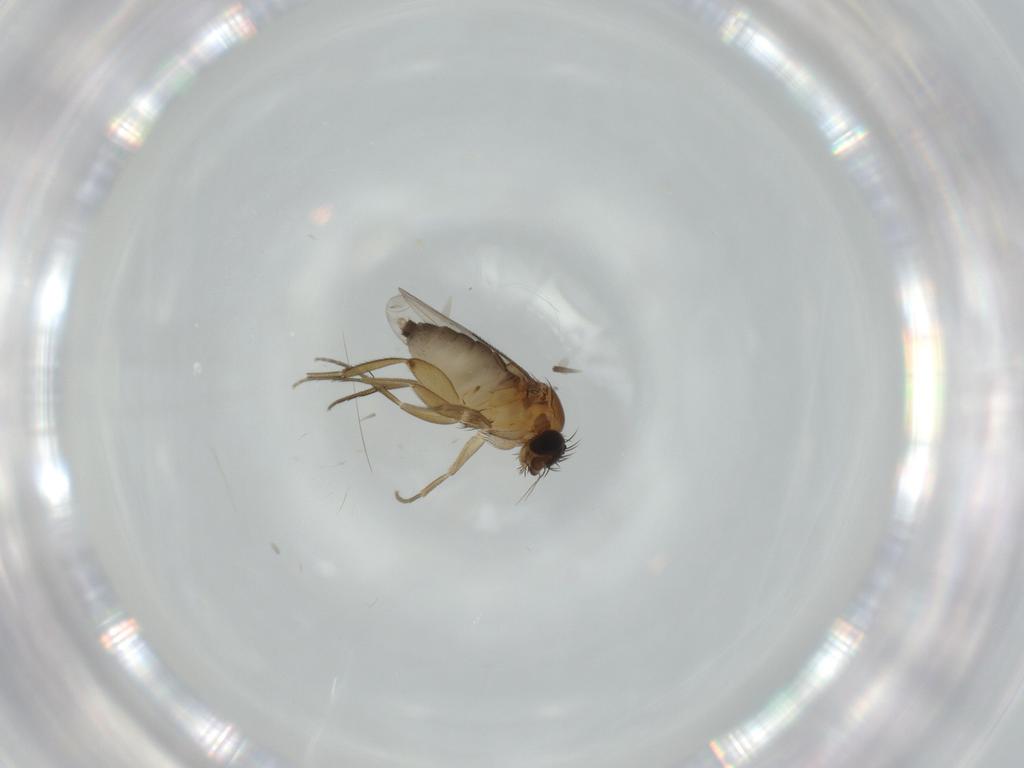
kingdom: Animalia
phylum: Arthropoda
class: Insecta
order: Diptera
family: Phoridae
